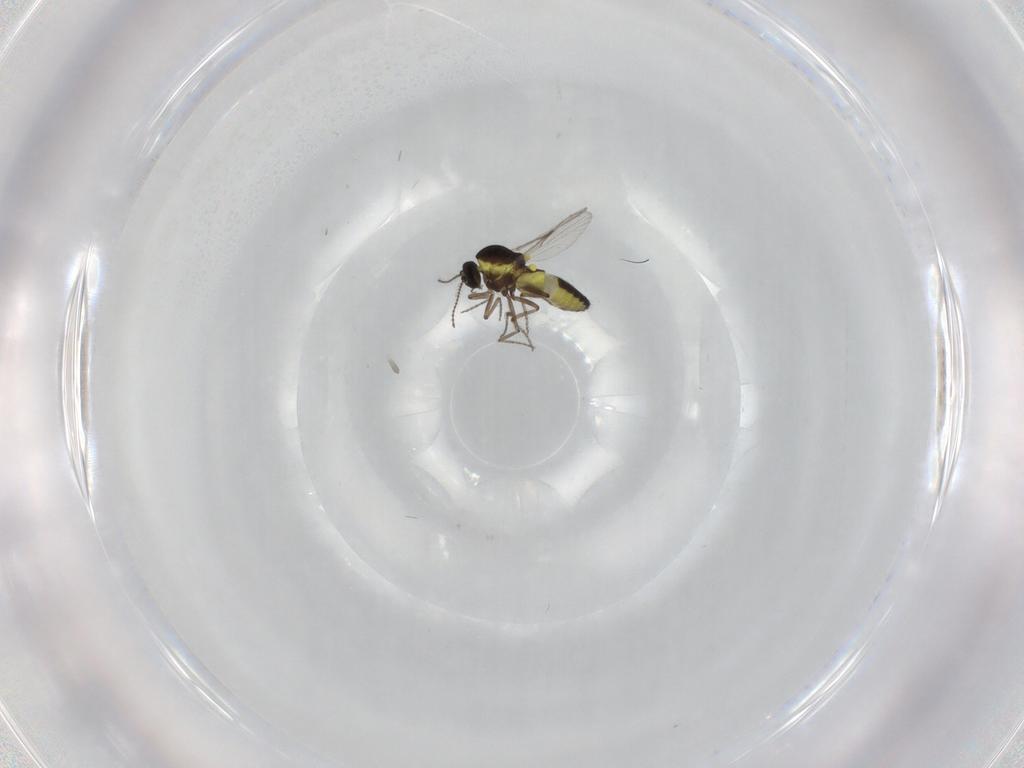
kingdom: Animalia
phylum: Arthropoda
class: Insecta
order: Diptera
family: Ceratopogonidae
